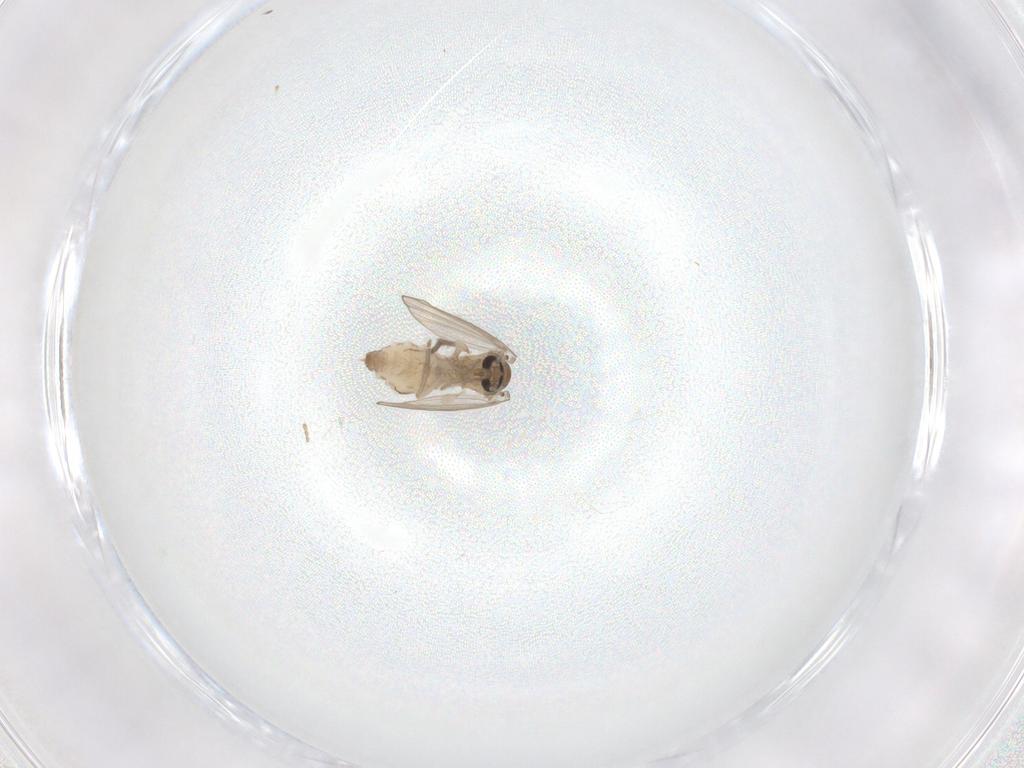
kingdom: Animalia
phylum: Arthropoda
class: Insecta
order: Diptera
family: Psychodidae
